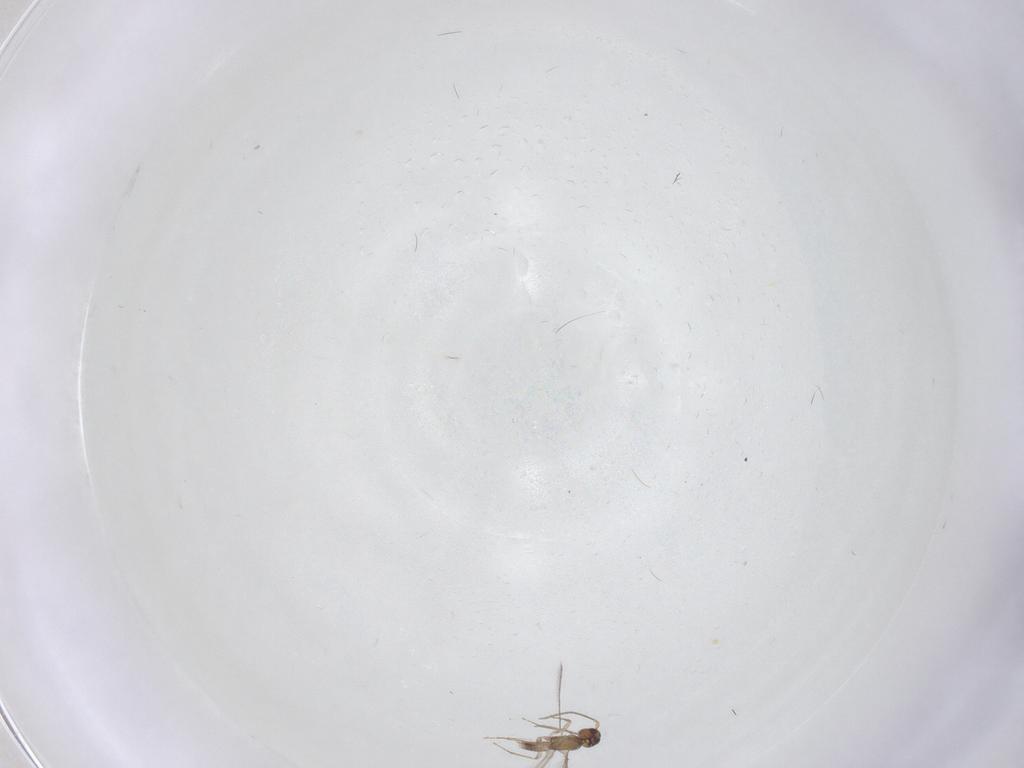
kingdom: Animalia
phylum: Arthropoda
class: Insecta
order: Hymenoptera
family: Mymaridae
